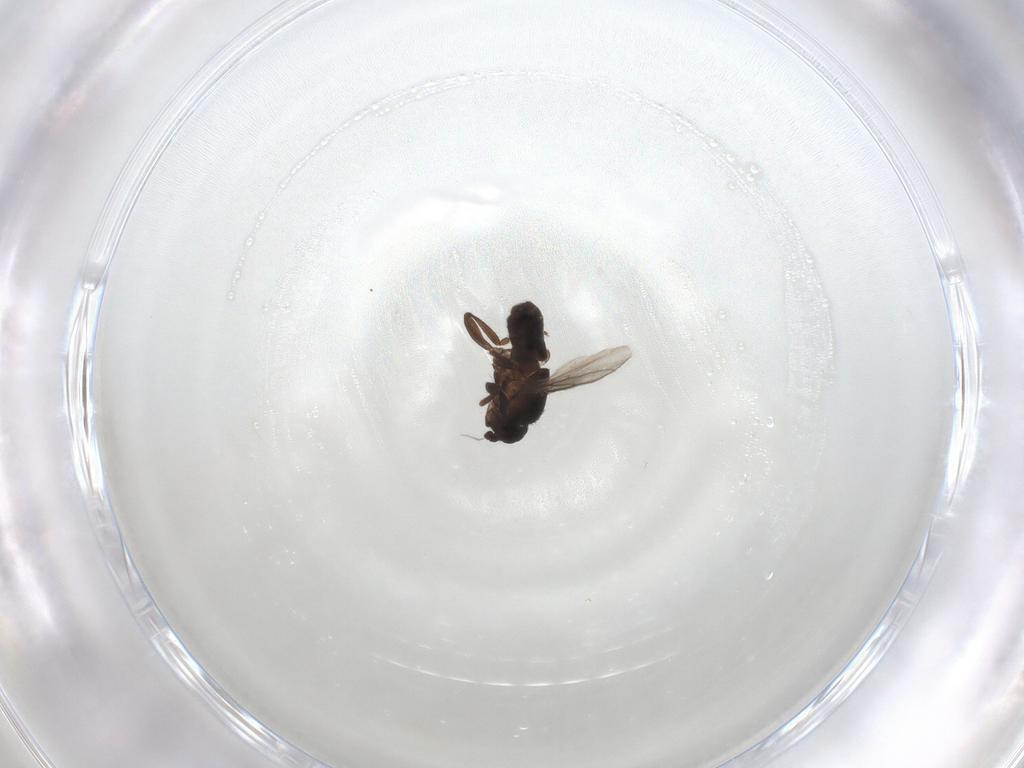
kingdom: Animalia
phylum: Arthropoda
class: Insecta
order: Diptera
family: Sphaeroceridae
